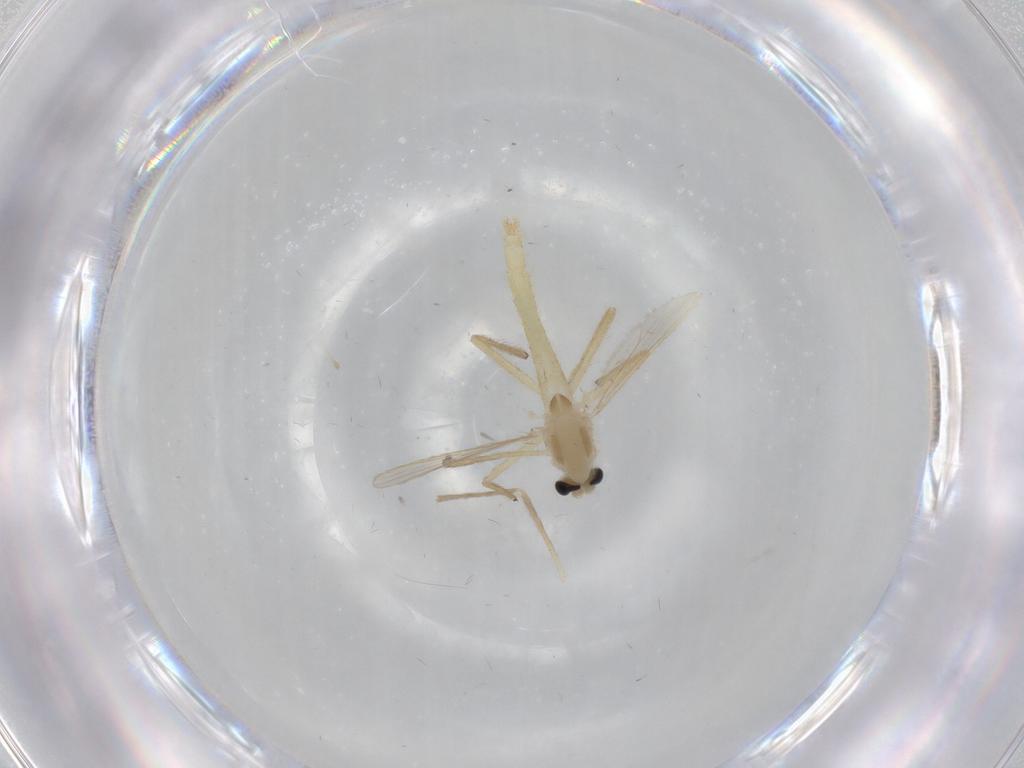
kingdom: Animalia
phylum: Arthropoda
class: Insecta
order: Diptera
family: Chironomidae
